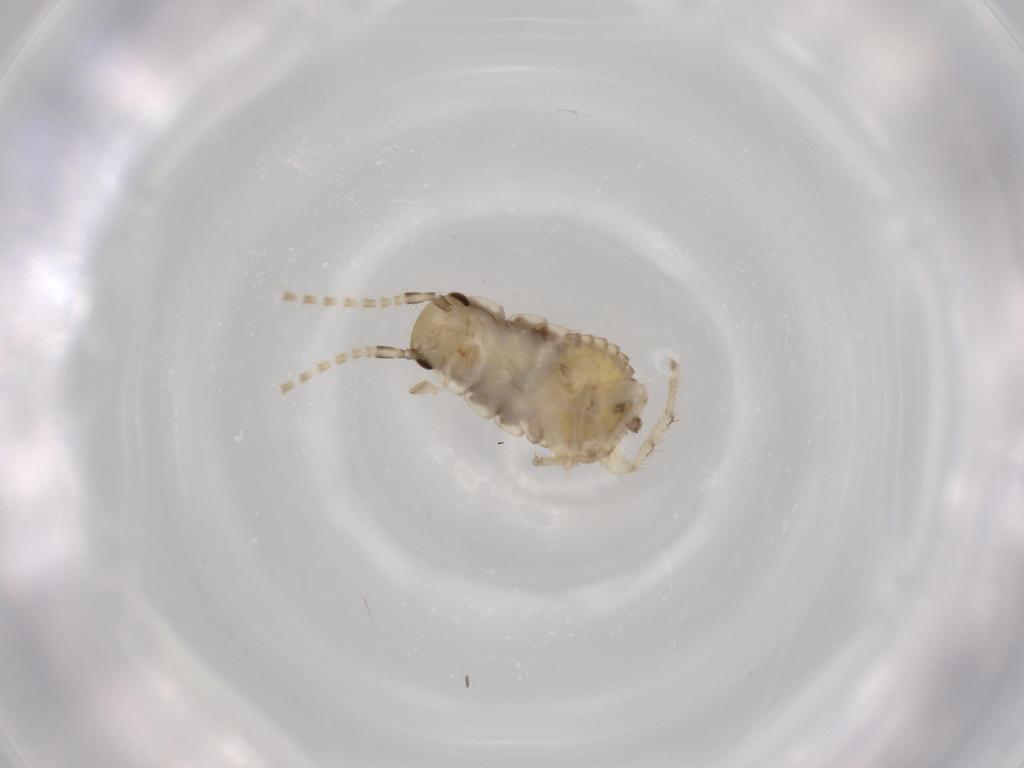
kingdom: Animalia
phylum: Arthropoda
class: Insecta
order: Blattodea
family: Ectobiidae
